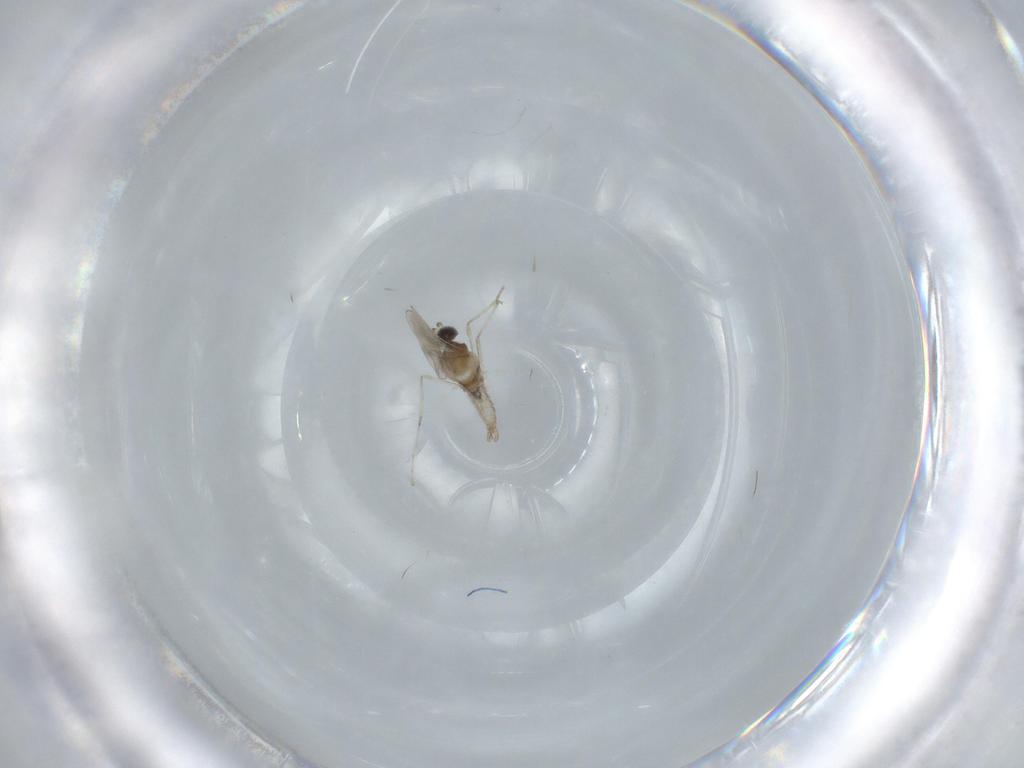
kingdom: Animalia
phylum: Arthropoda
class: Insecta
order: Diptera
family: Cecidomyiidae
